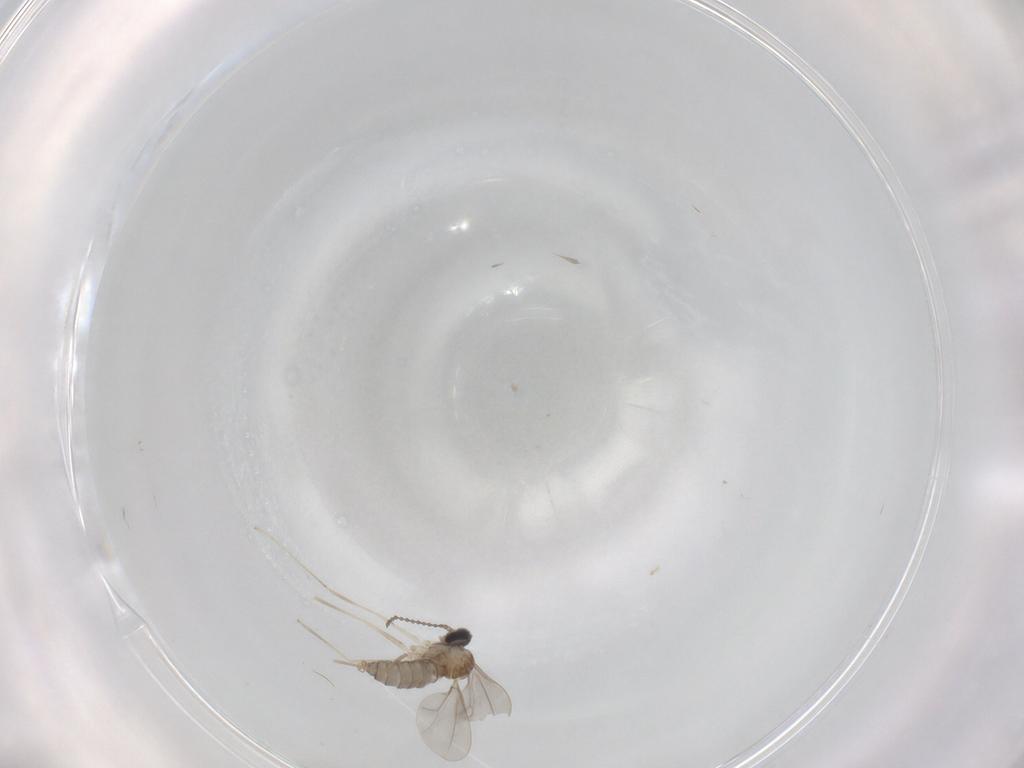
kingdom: Animalia
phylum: Arthropoda
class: Insecta
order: Diptera
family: Cecidomyiidae
